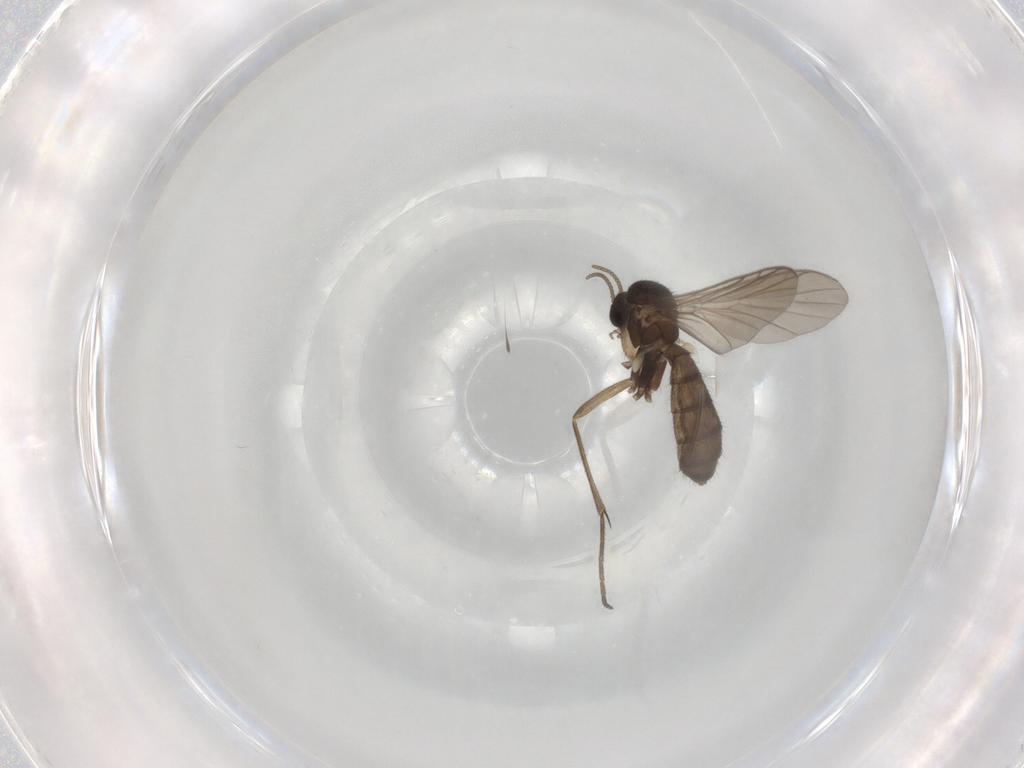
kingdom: Animalia
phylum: Arthropoda
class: Insecta
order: Diptera
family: Keroplatidae
